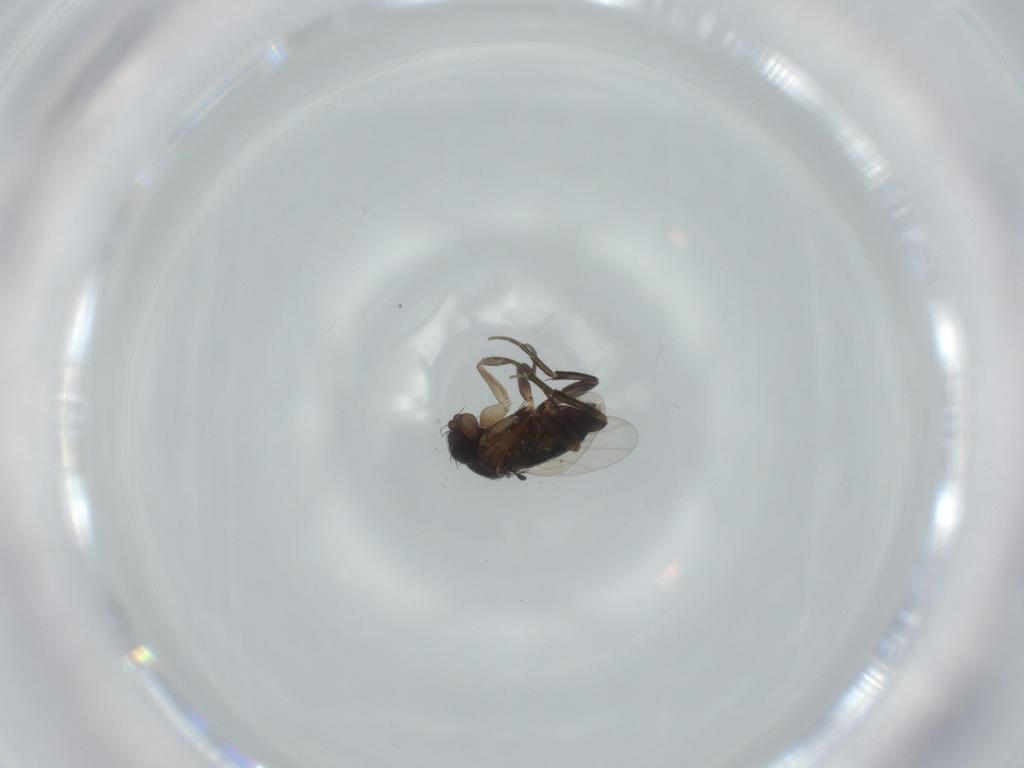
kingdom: Animalia
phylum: Arthropoda
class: Insecta
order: Diptera
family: Phoridae
